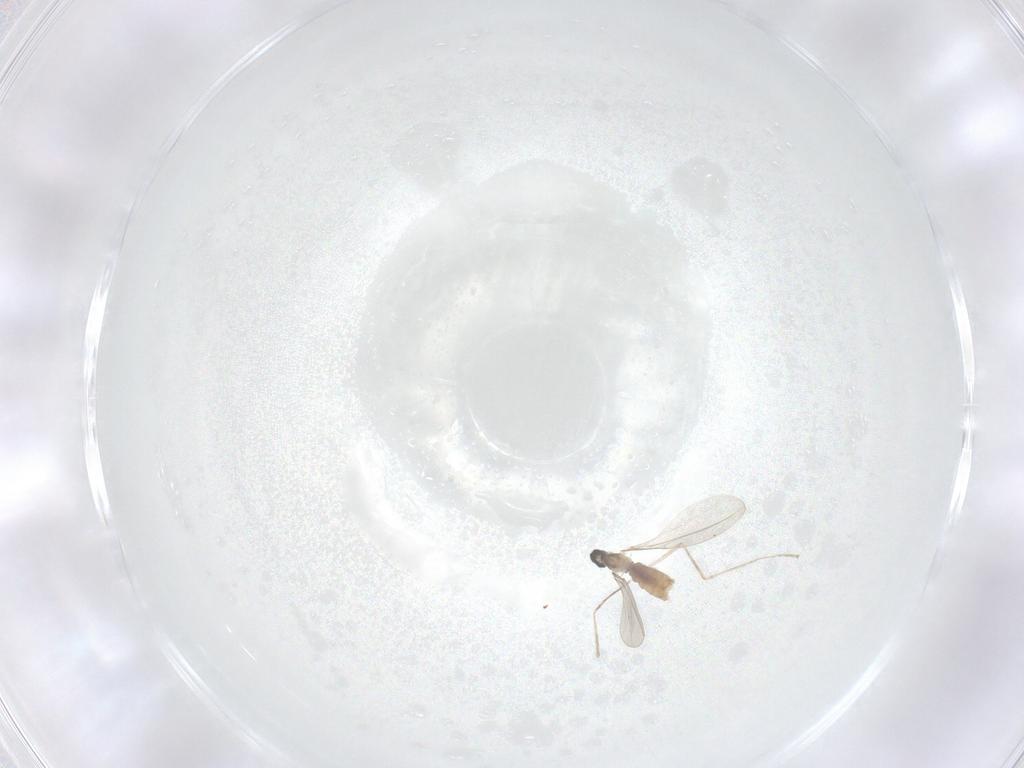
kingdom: Animalia
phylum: Arthropoda
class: Insecta
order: Diptera
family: Limoniidae
